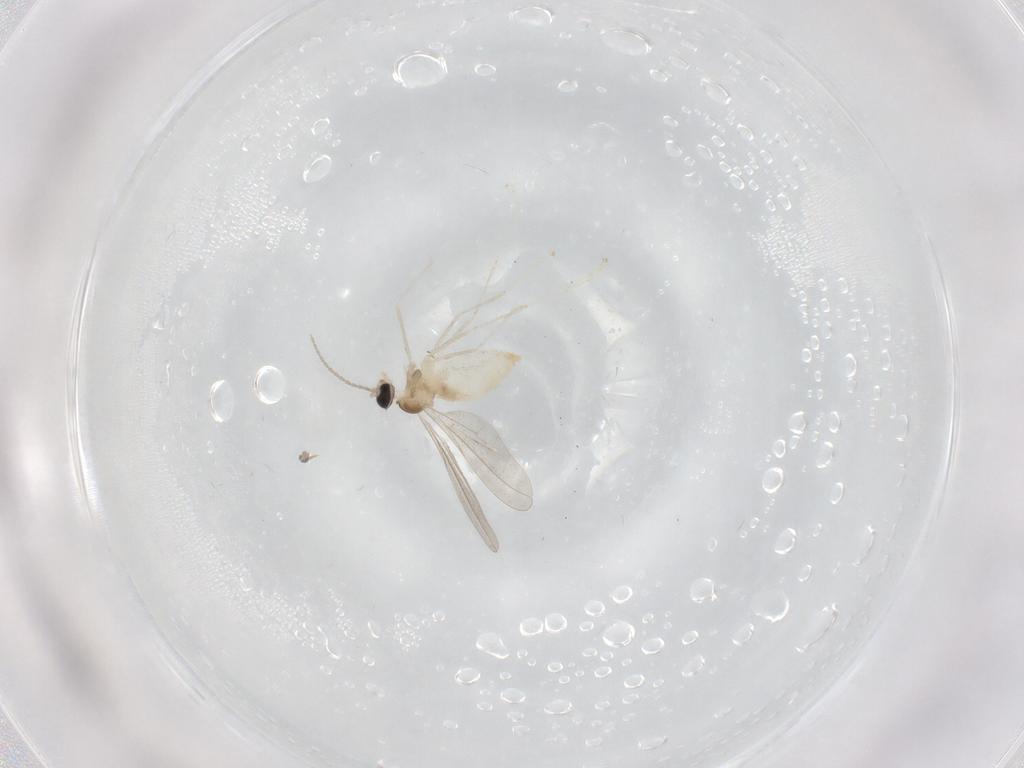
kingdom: Animalia
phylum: Arthropoda
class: Insecta
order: Diptera
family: Cecidomyiidae
